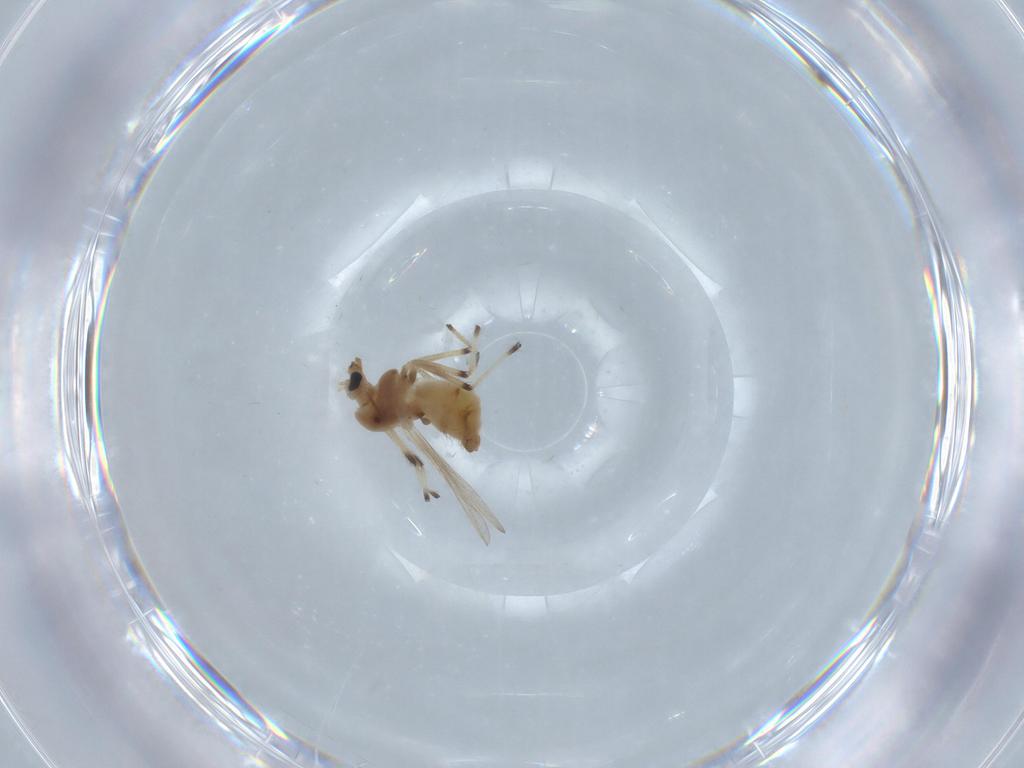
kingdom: Animalia
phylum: Arthropoda
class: Insecta
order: Diptera
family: Chironomidae
